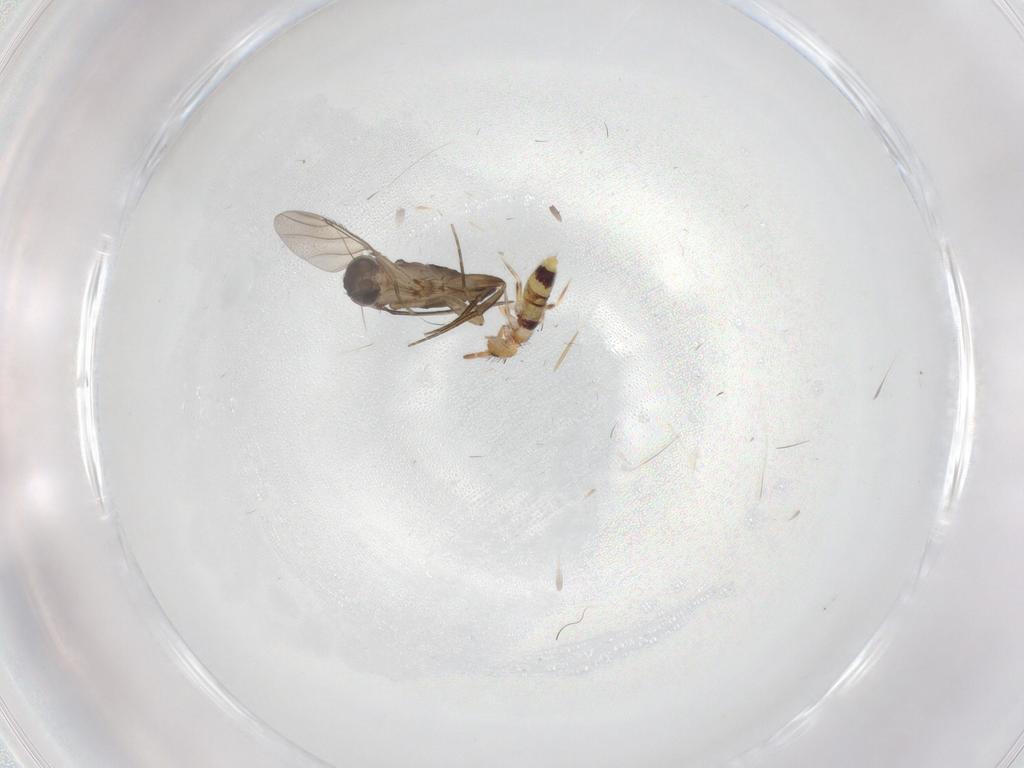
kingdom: Animalia
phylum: Arthropoda
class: Insecta
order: Diptera
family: Phoridae
